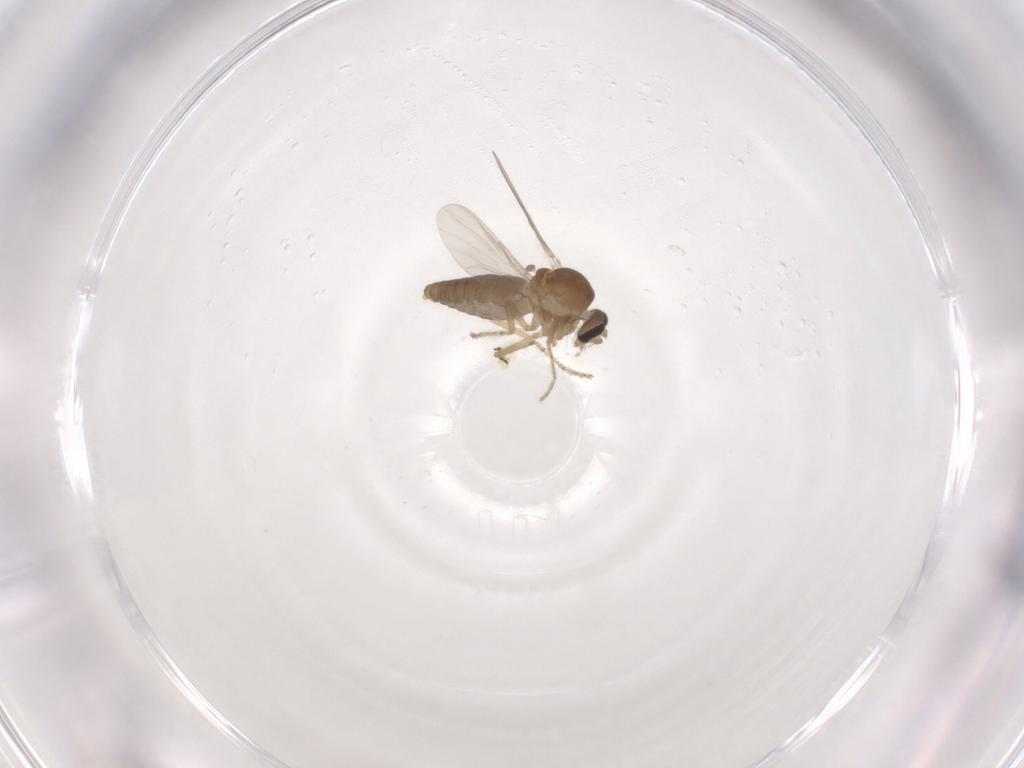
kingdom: Animalia
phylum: Arthropoda
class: Insecta
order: Diptera
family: Ceratopogonidae
